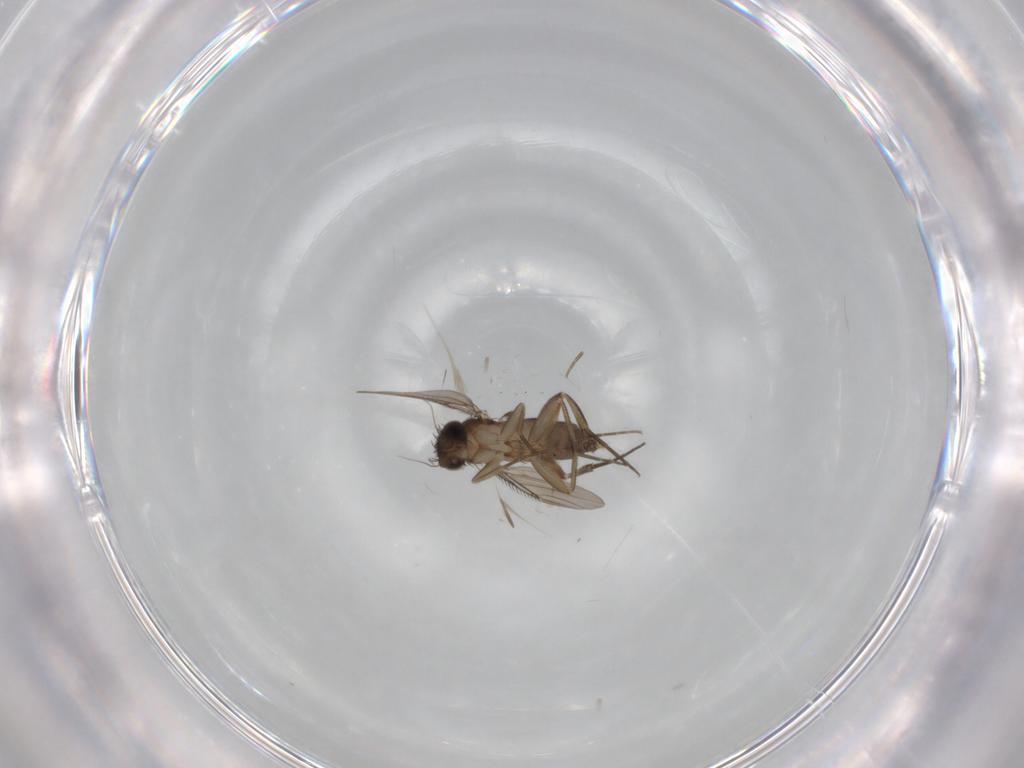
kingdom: Animalia
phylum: Arthropoda
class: Insecta
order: Diptera
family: Phoridae
